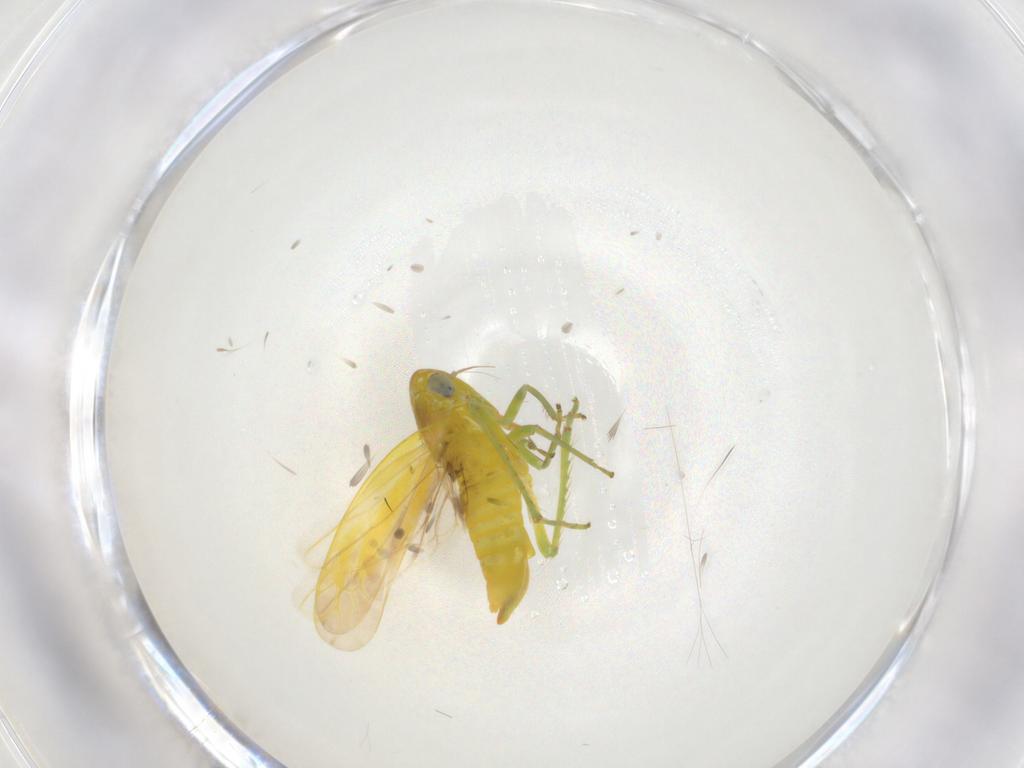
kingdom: Animalia
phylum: Arthropoda
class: Insecta
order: Hemiptera
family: Cicadellidae
